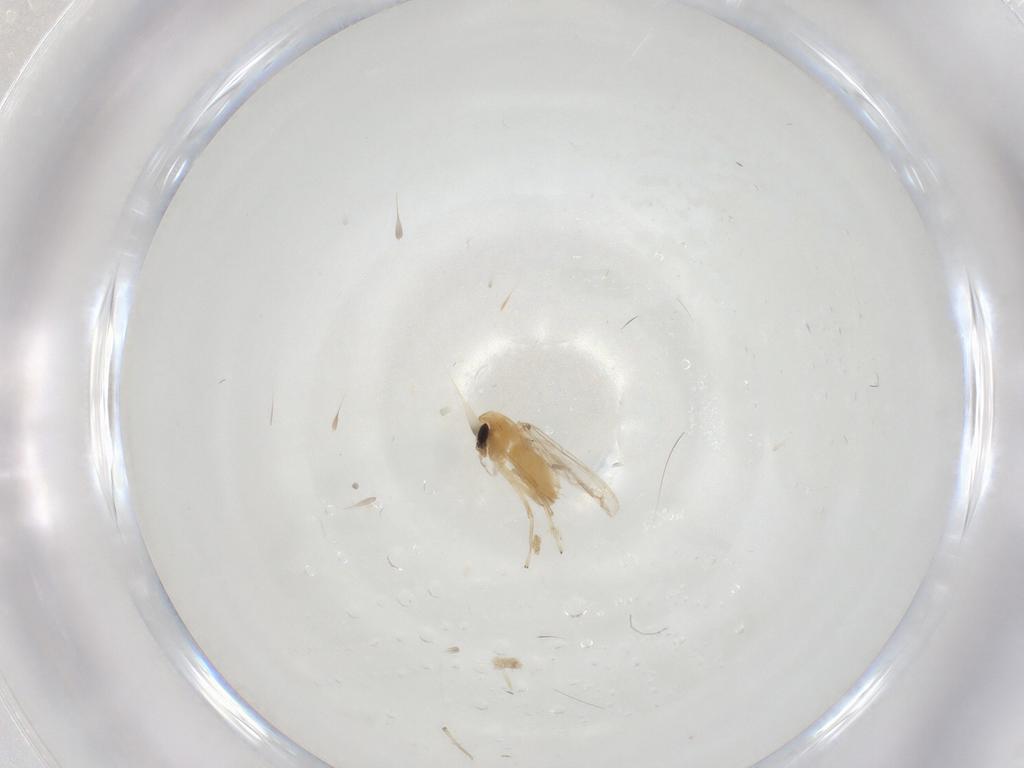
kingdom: Animalia
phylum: Arthropoda
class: Insecta
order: Diptera
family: Chironomidae
